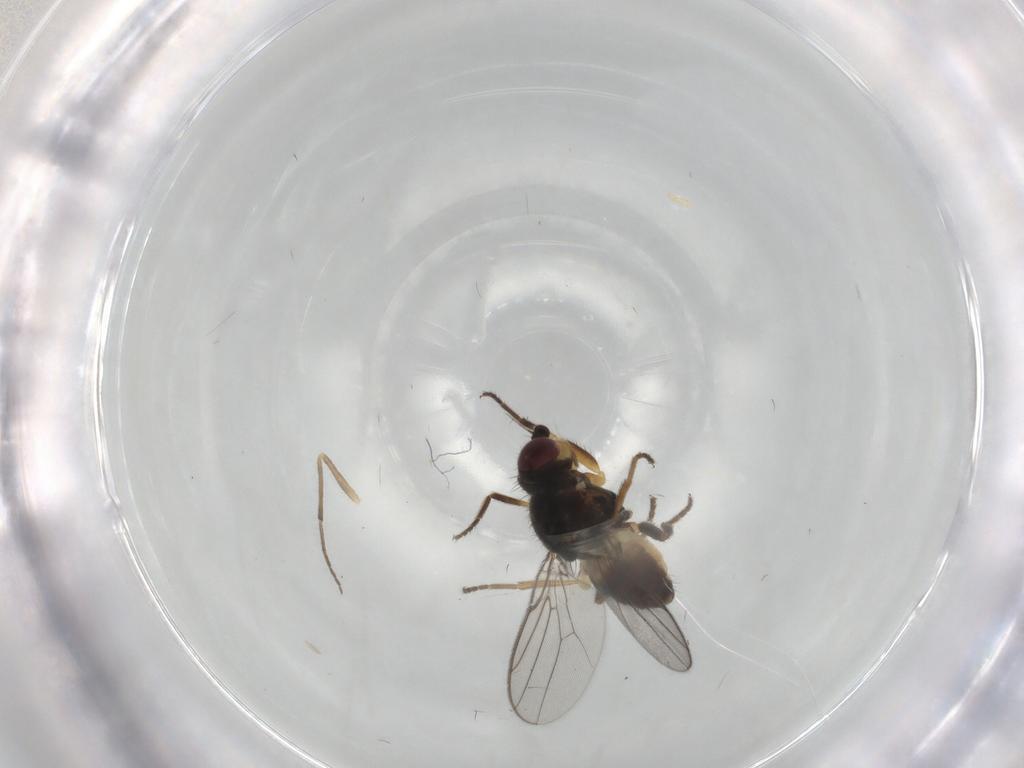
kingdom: Animalia
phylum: Arthropoda
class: Insecta
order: Diptera
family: Chloropidae
